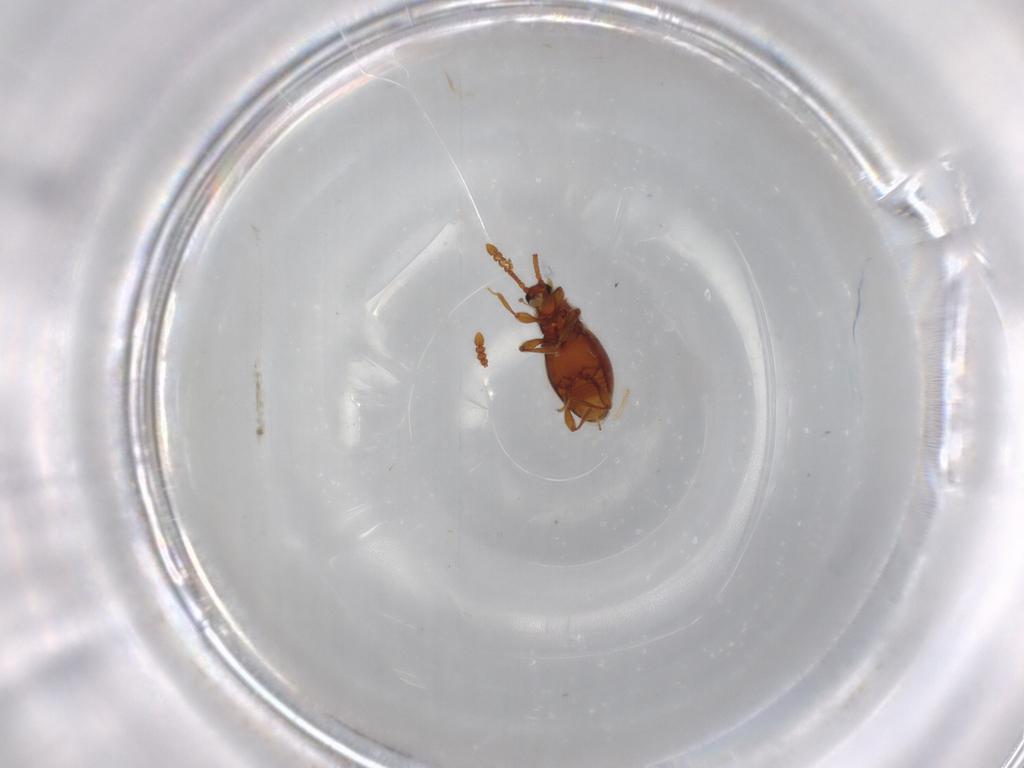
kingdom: Animalia
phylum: Arthropoda
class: Insecta
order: Coleoptera
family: Staphylinidae
